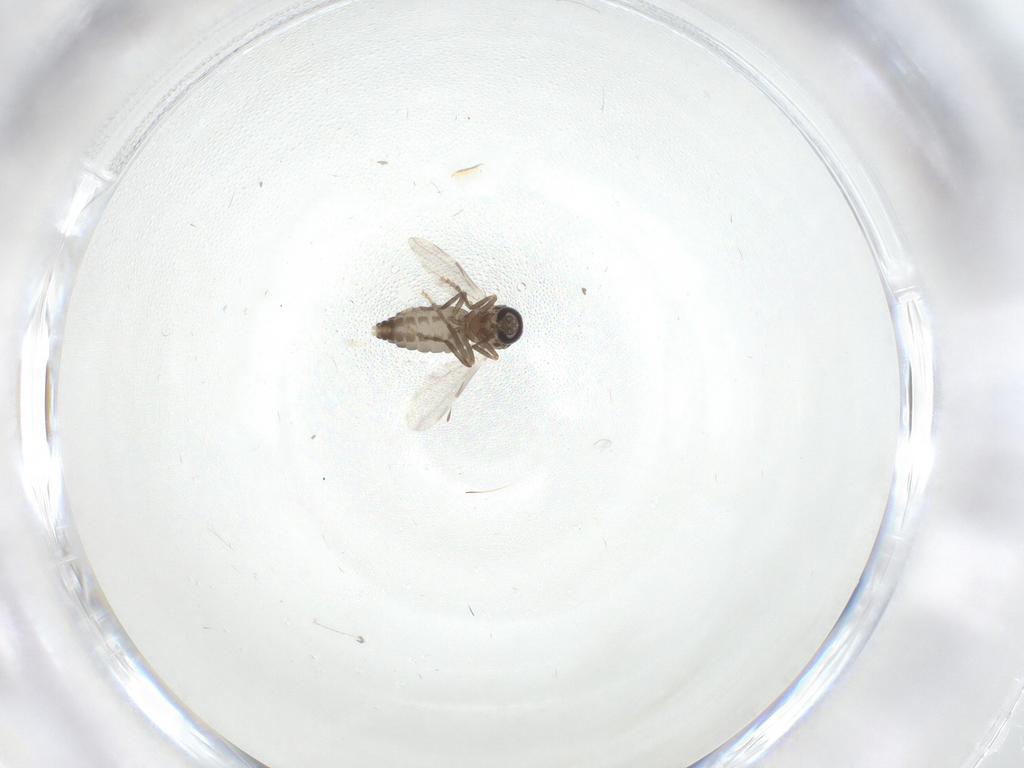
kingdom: Animalia
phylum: Arthropoda
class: Insecta
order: Diptera
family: Ceratopogonidae
